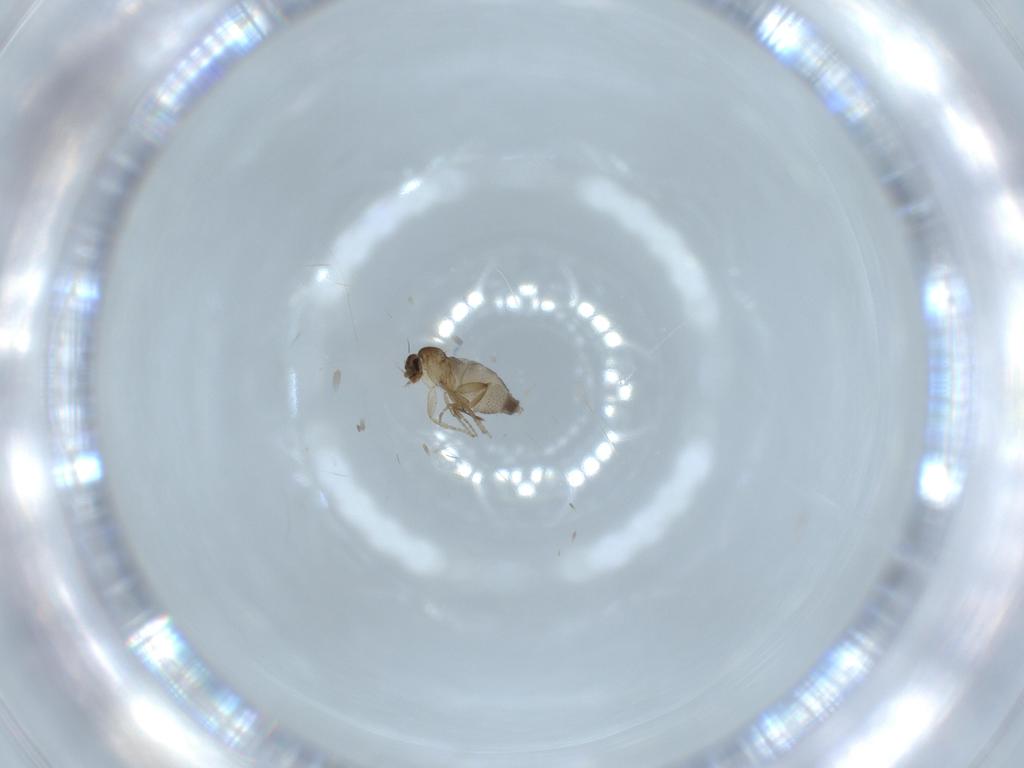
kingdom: Animalia
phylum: Arthropoda
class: Insecta
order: Diptera
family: Phoridae
